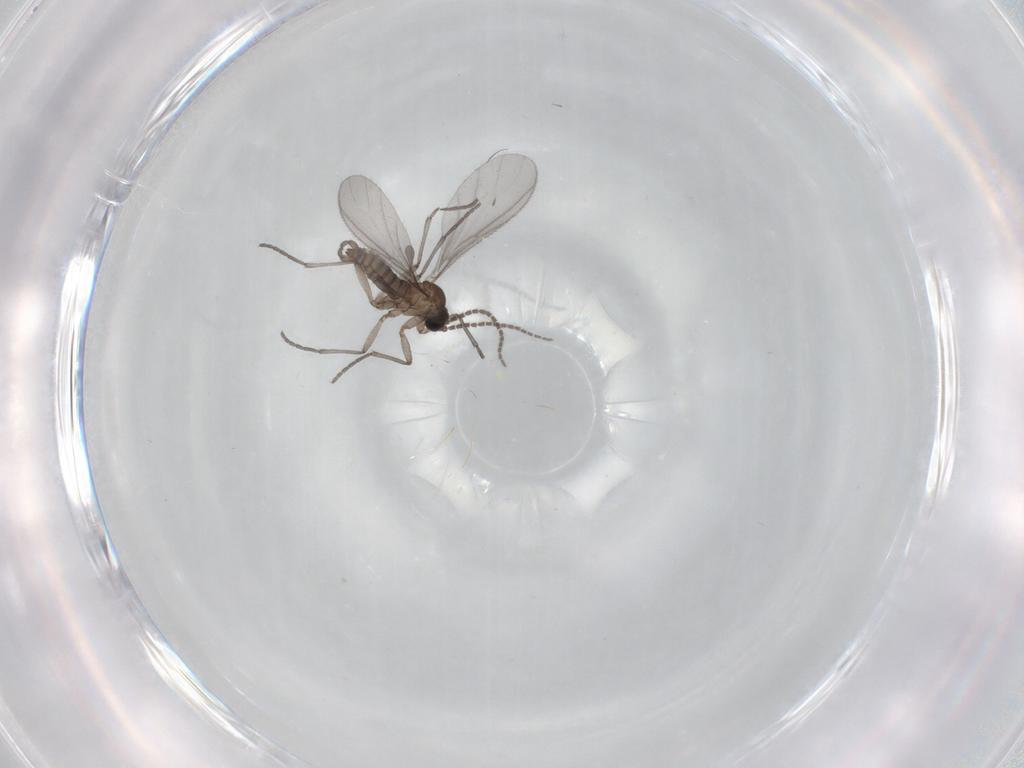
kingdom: Animalia
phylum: Arthropoda
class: Insecta
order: Diptera
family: Sciaridae
